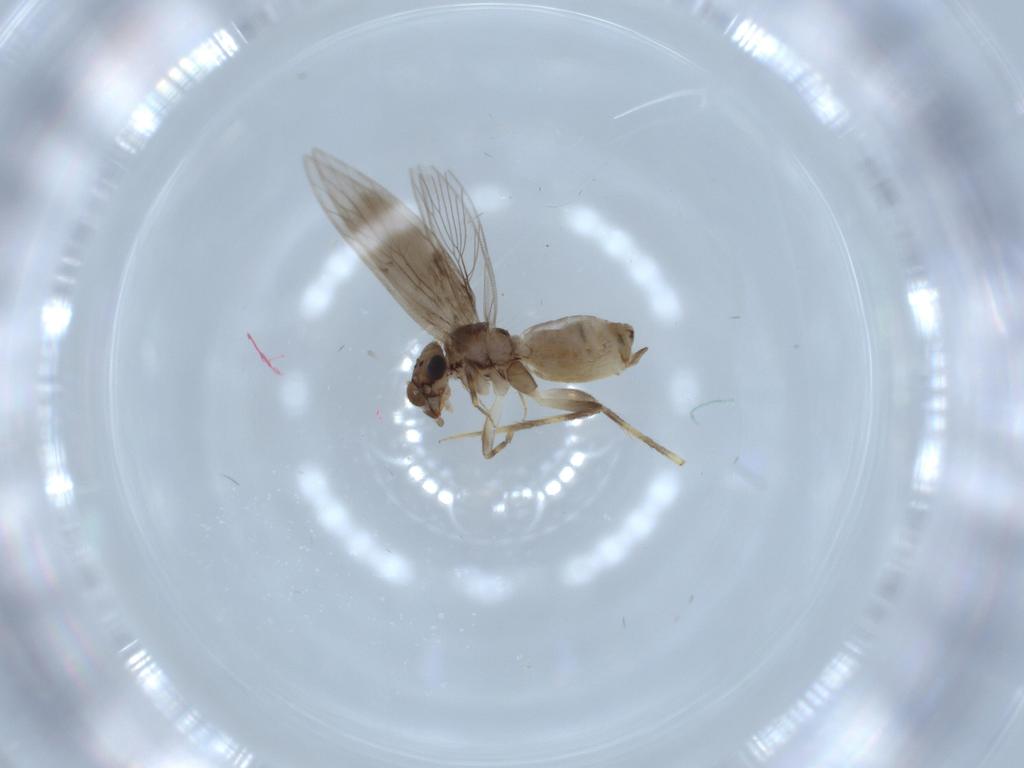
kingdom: Animalia
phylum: Arthropoda
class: Insecta
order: Psocodea
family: Lepidopsocidae
